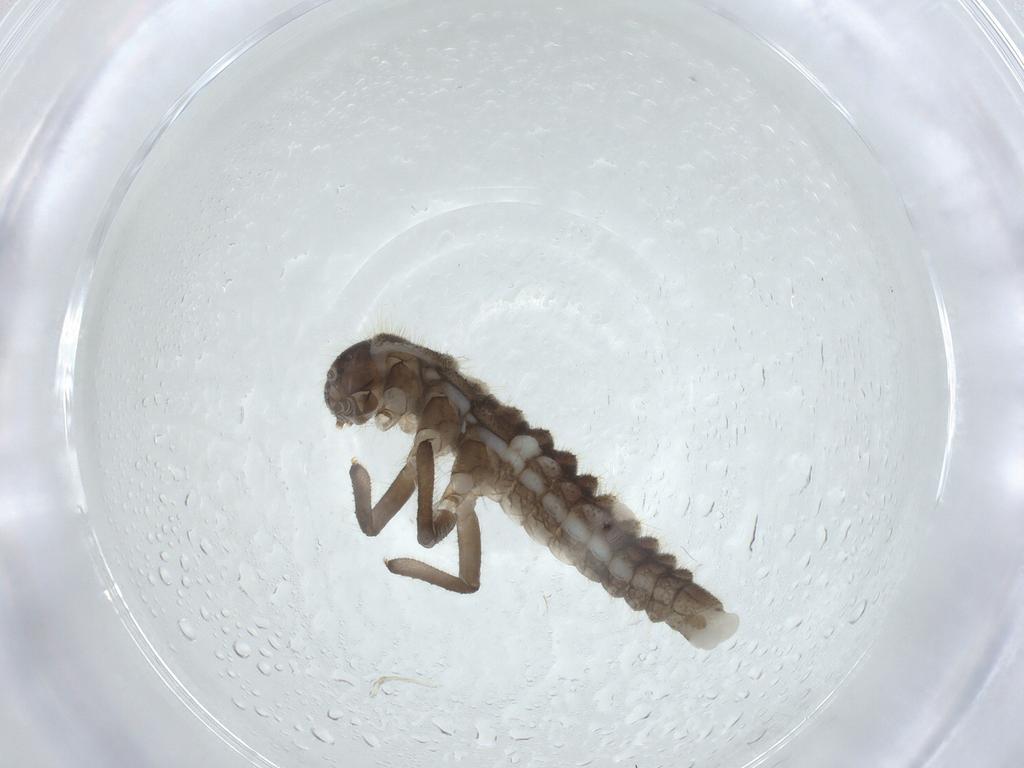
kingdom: Animalia
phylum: Arthropoda
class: Insecta
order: Coleoptera
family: Coccinellidae
